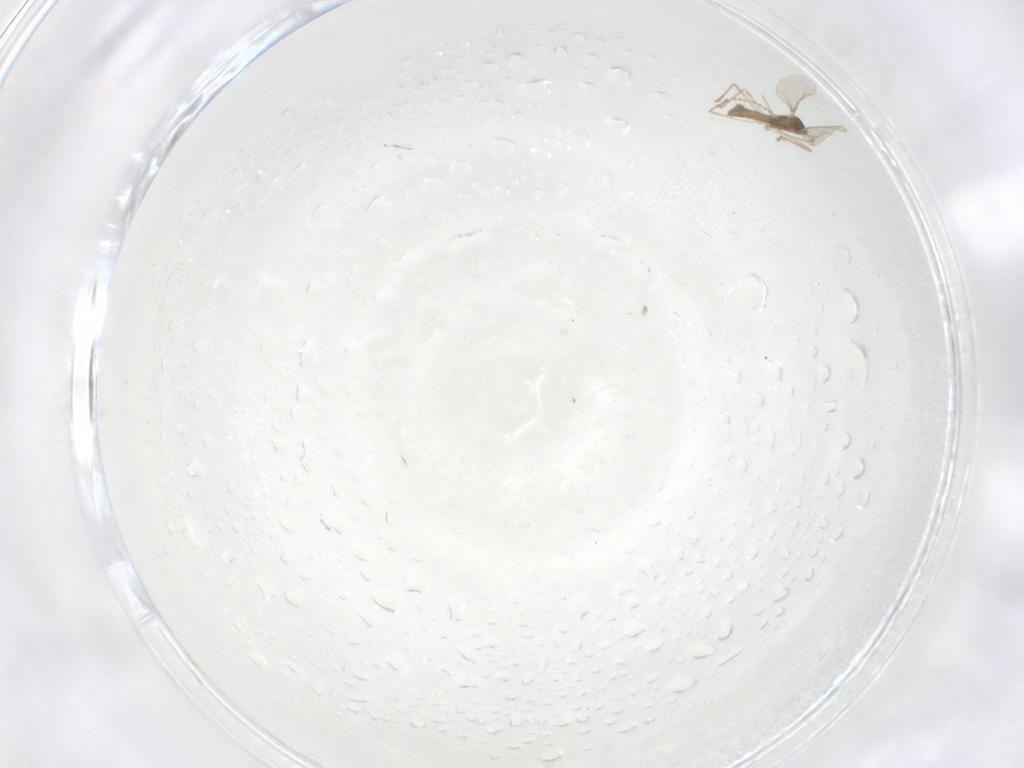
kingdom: Animalia
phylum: Arthropoda
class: Insecta
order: Diptera
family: Cecidomyiidae
